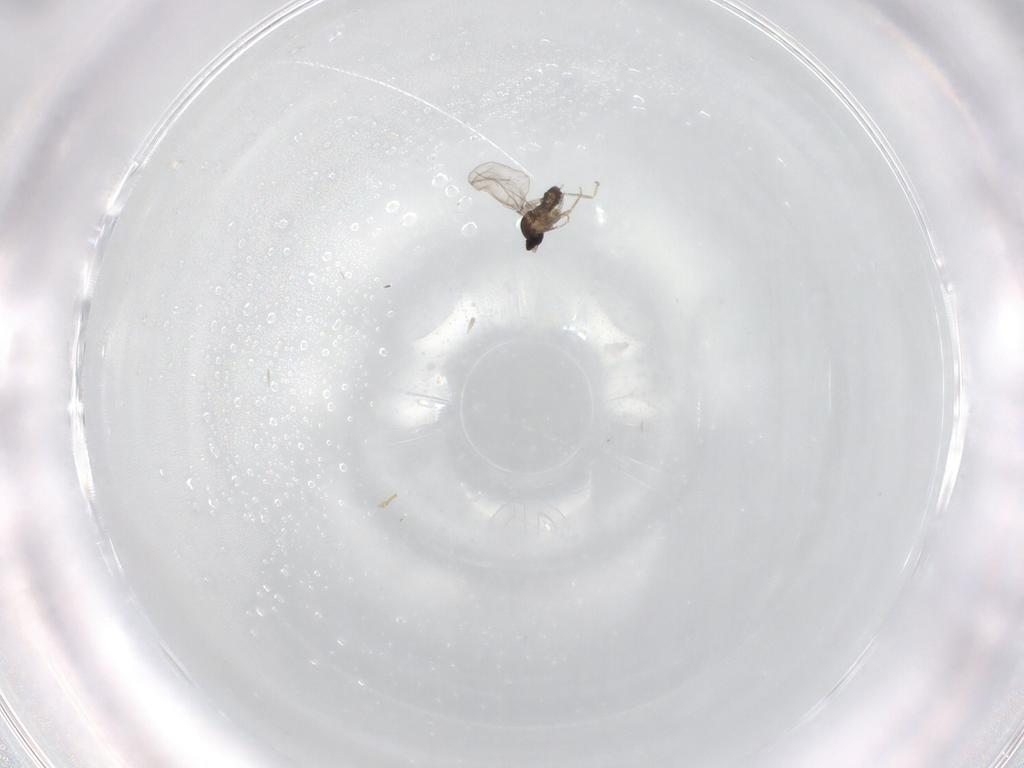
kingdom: Animalia
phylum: Arthropoda
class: Insecta
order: Diptera
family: Cecidomyiidae
